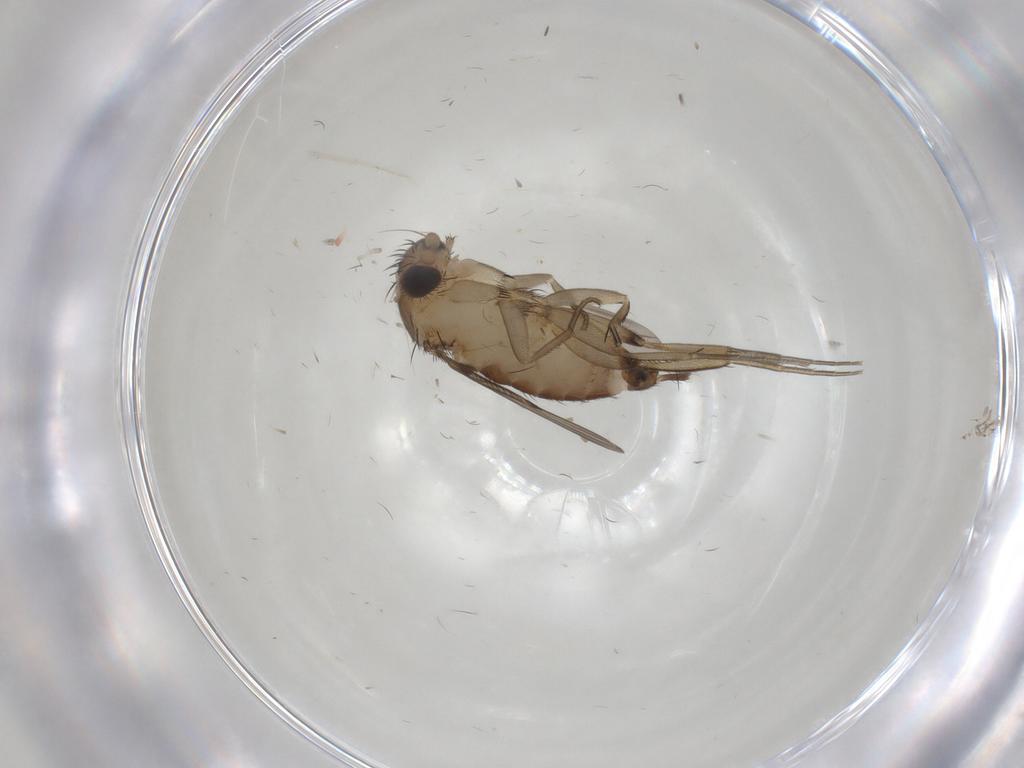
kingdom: Animalia
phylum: Arthropoda
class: Insecta
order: Diptera
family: Phoridae
